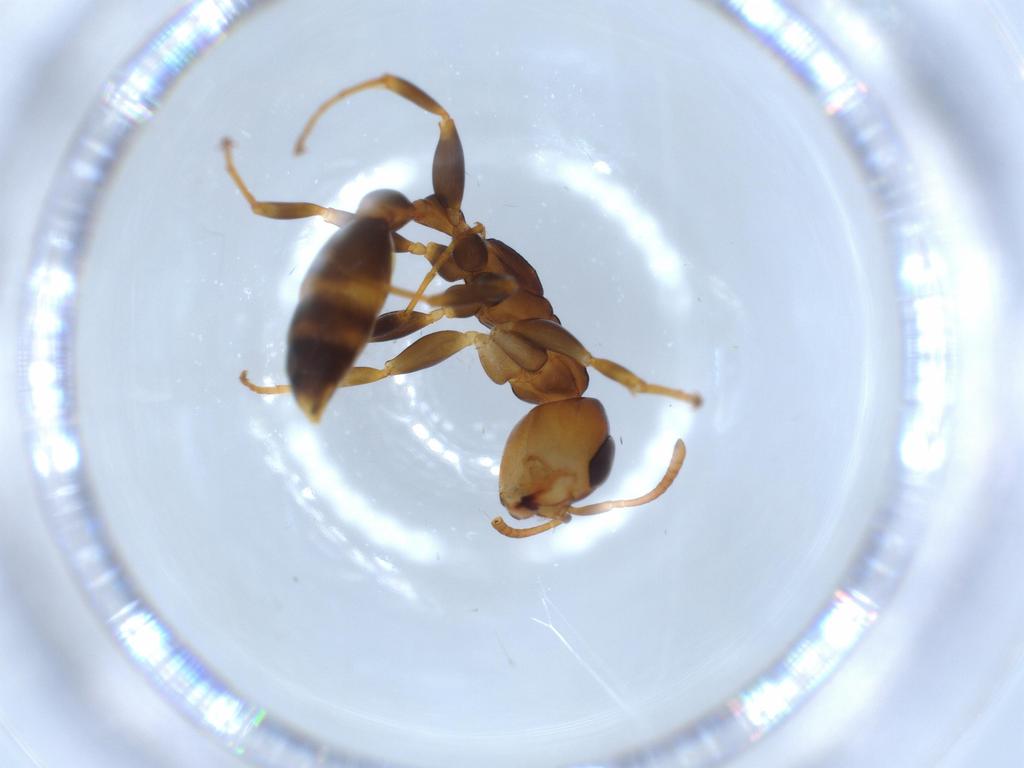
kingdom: Animalia
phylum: Arthropoda
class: Insecta
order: Hymenoptera
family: Formicidae
